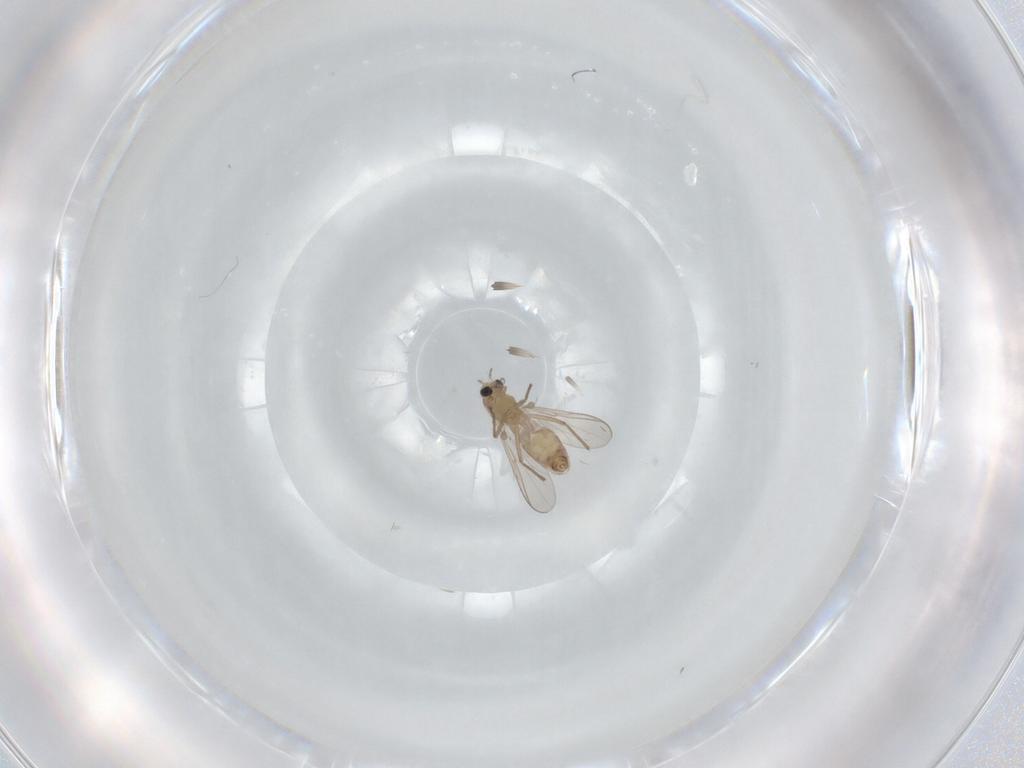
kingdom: Animalia
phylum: Arthropoda
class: Insecta
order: Diptera
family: Chironomidae
